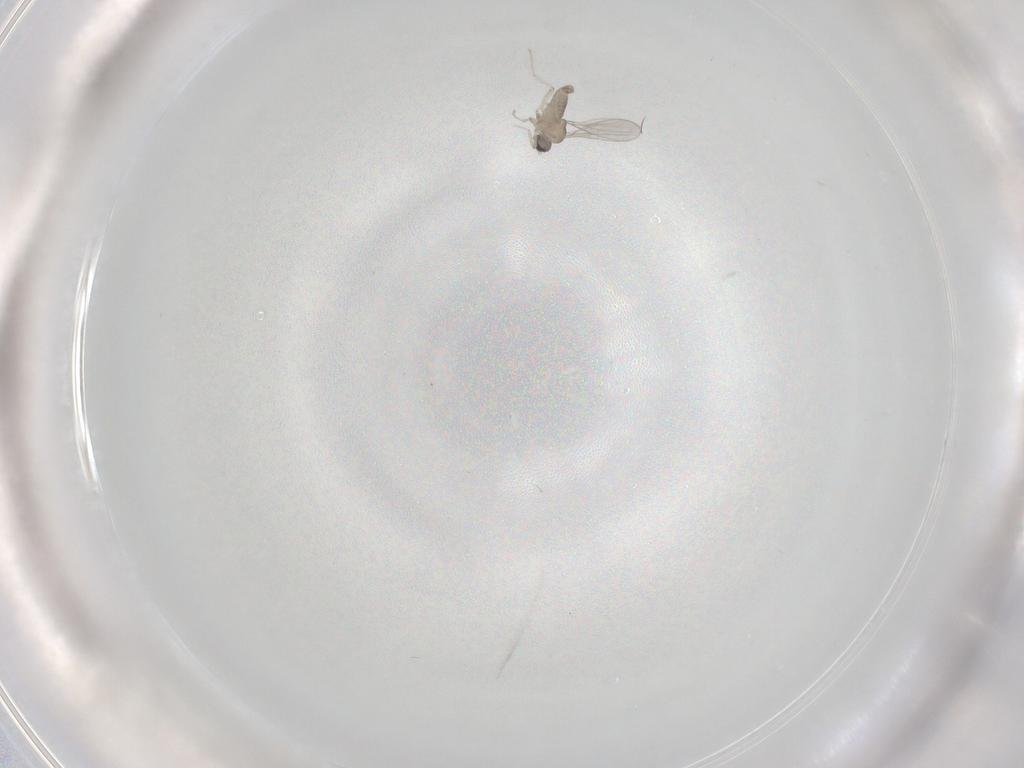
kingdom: Animalia
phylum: Arthropoda
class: Insecta
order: Diptera
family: Cecidomyiidae
